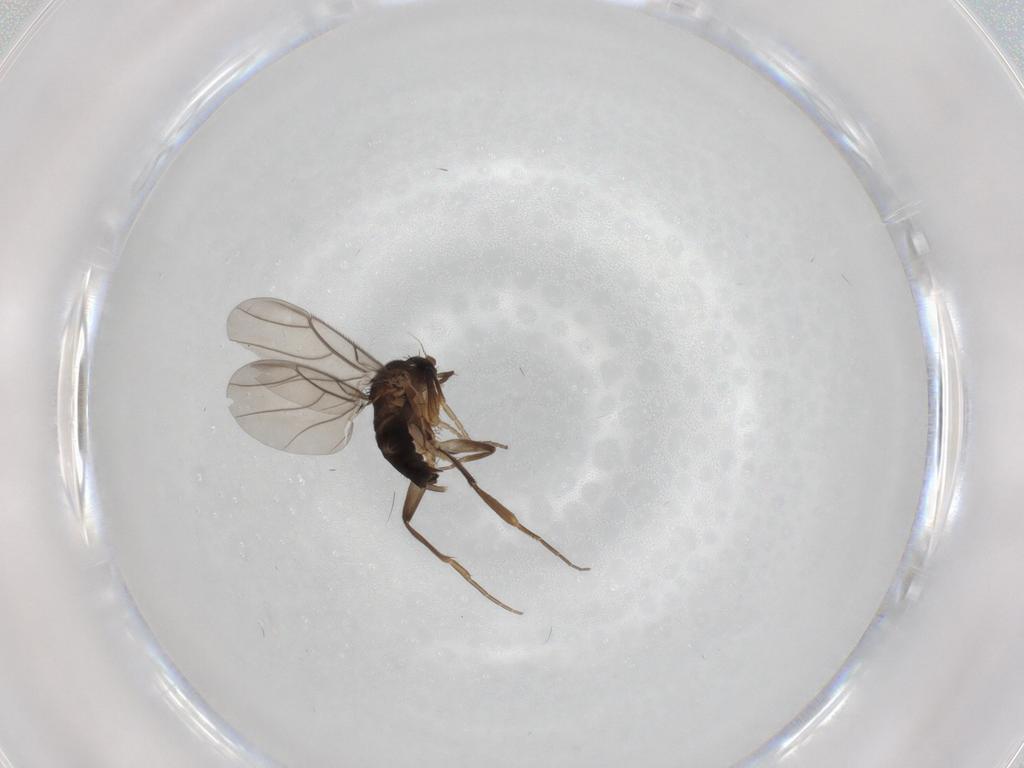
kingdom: Animalia
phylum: Arthropoda
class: Insecta
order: Diptera
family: Phoridae
